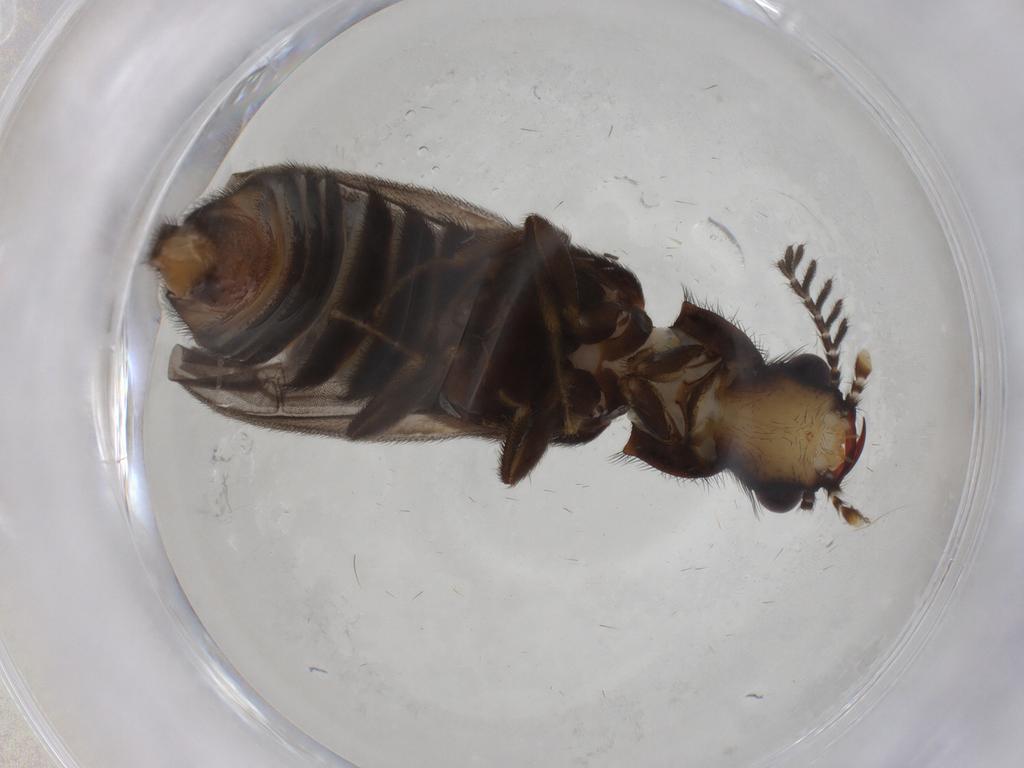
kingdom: Animalia
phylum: Arthropoda
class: Insecta
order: Coleoptera
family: Phengodidae
